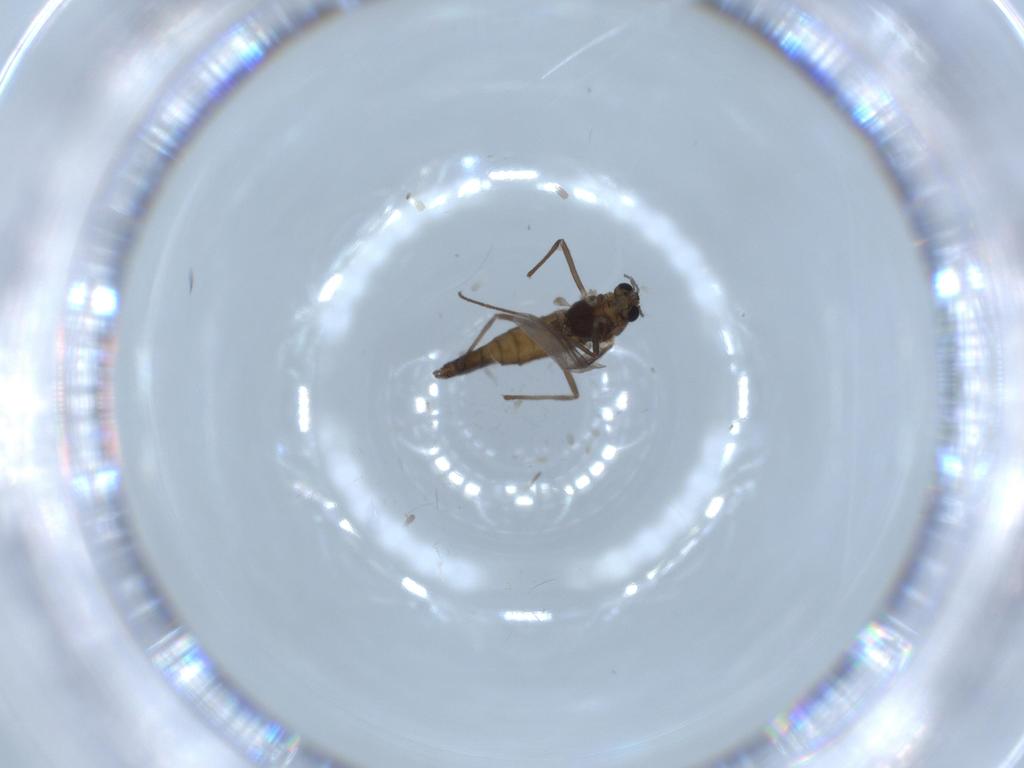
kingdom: Animalia
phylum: Arthropoda
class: Insecta
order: Diptera
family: Chironomidae
